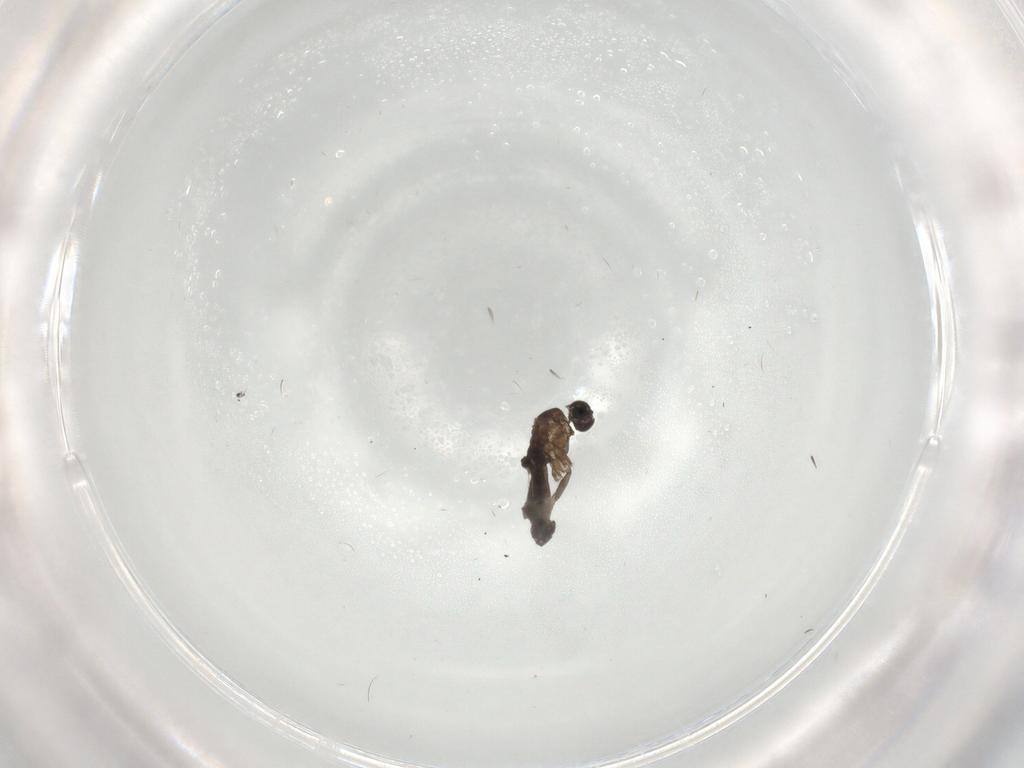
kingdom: Animalia
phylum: Arthropoda
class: Insecta
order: Diptera
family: Sciaridae
